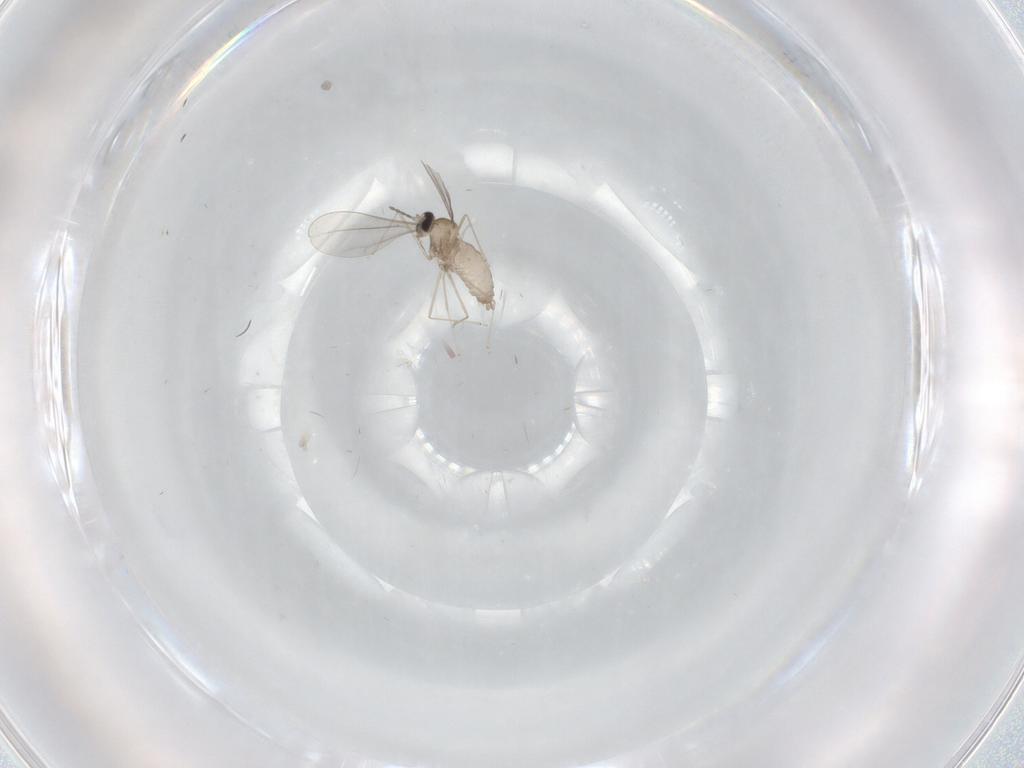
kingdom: Animalia
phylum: Arthropoda
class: Insecta
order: Diptera
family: Cecidomyiidae
